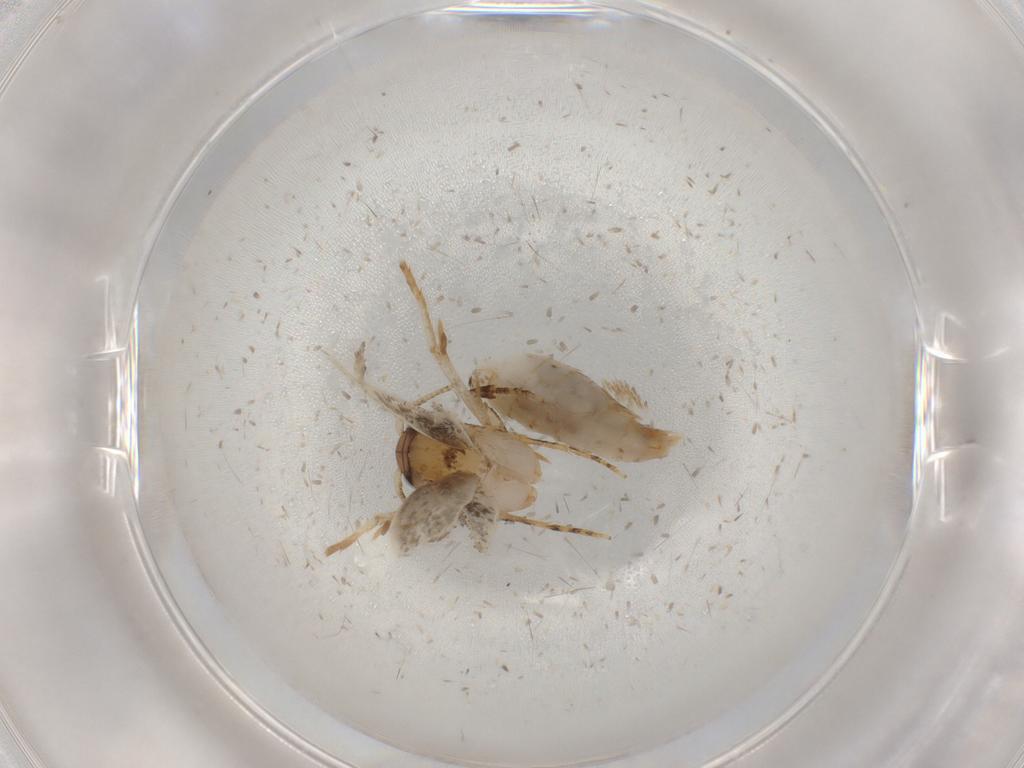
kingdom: Animalia
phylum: Arthropoda
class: Insecta
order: Lepidoptera
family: Tineidae
